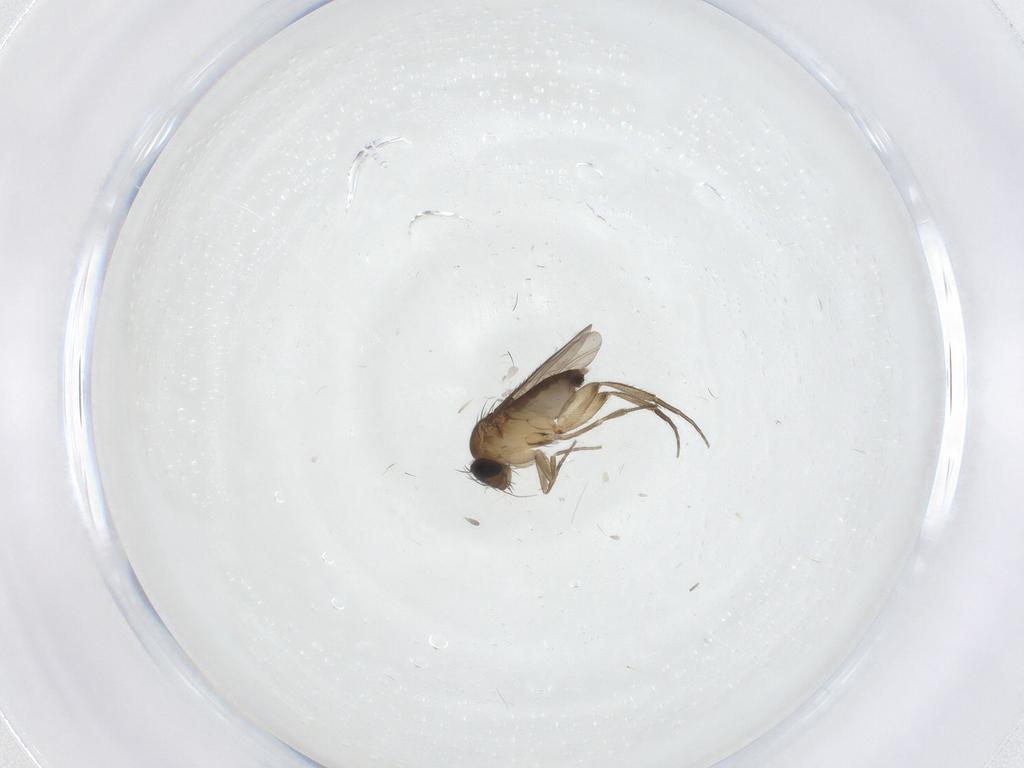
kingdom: Animalia
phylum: Arthropoda
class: Insecta
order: Diptera
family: Phoridae
